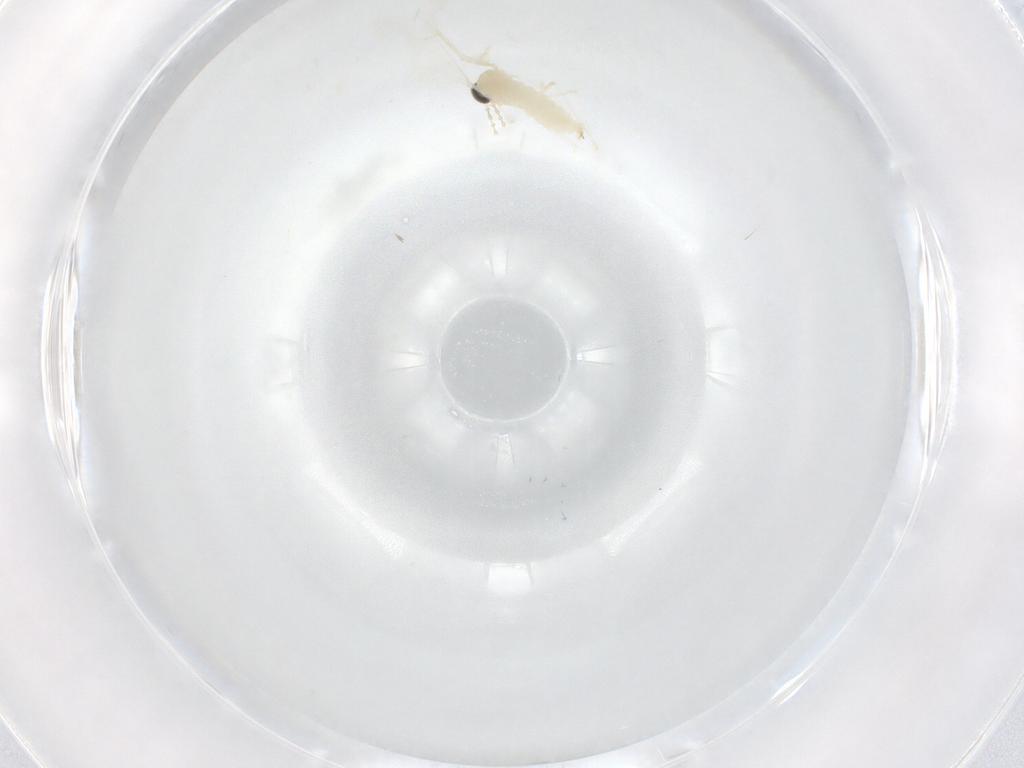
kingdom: Animalia
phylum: Arthropoda
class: Insecta
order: Diptera
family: Cecidomyiidae
